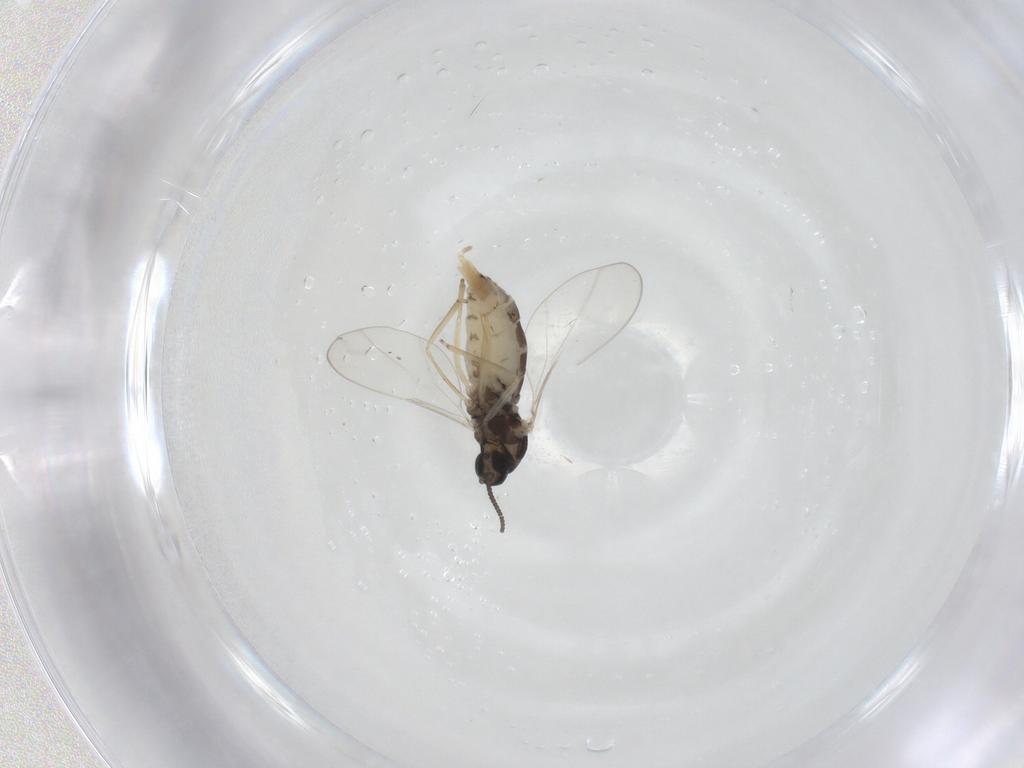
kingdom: Animalia
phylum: Arthropoda
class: Insecta
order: Diptera
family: Cecidomyiidae
